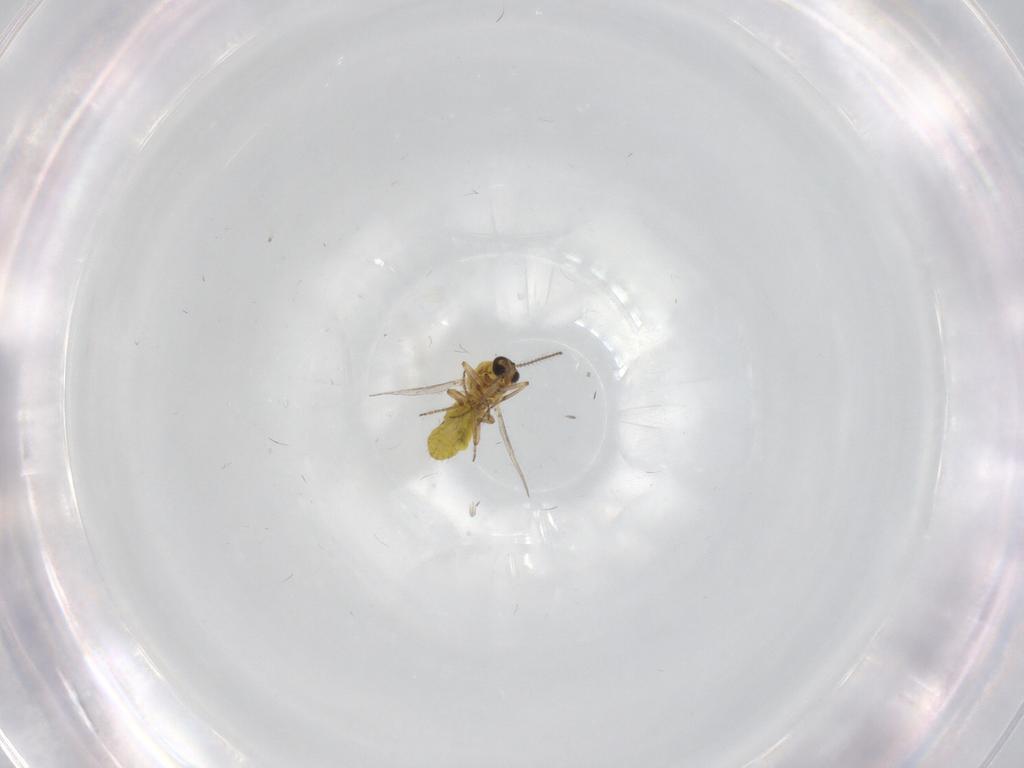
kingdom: Animalia
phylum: Arthropoda
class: Insecta
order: Diptera
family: Ceratopogonidae
